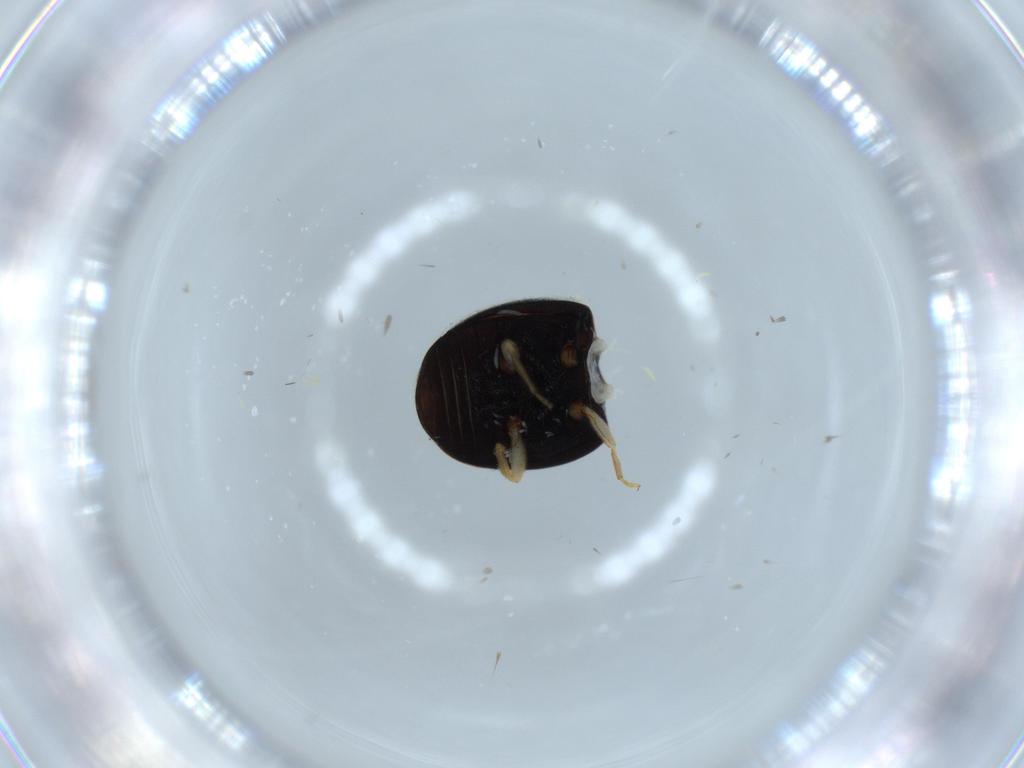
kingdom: Animalia
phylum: Arthropoda
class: Insecta
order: Coleoptera
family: Coccinellidae
